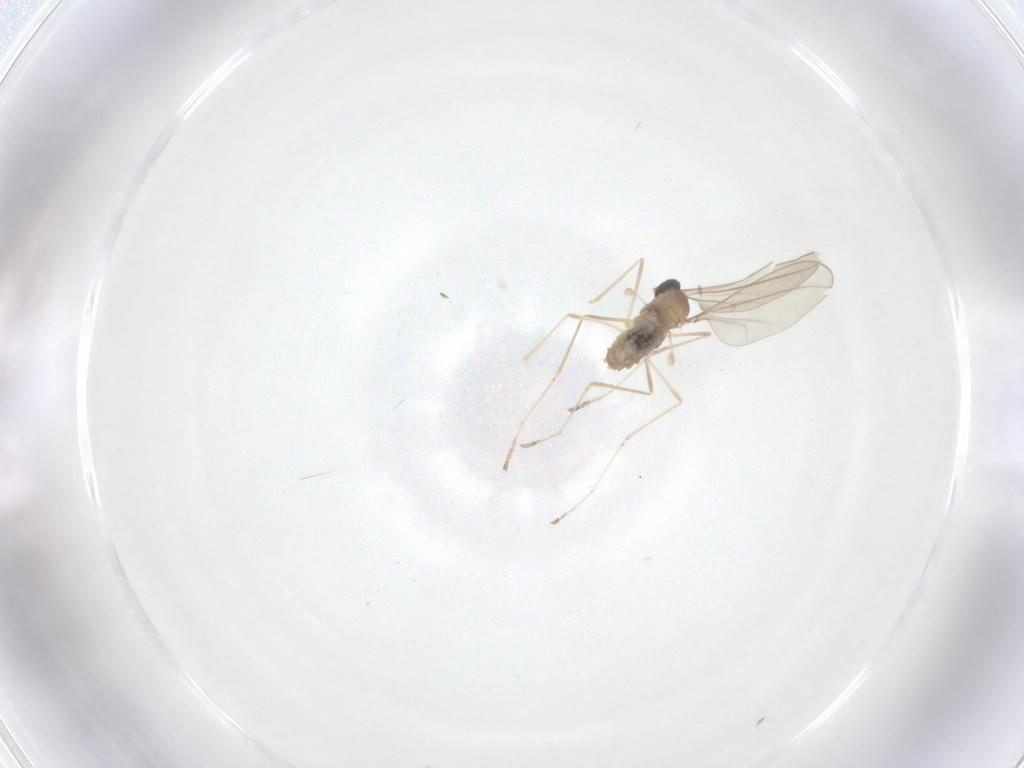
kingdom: Animalia
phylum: Arthropoda
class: Insecta
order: Diptera
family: Cecidomyiidae
